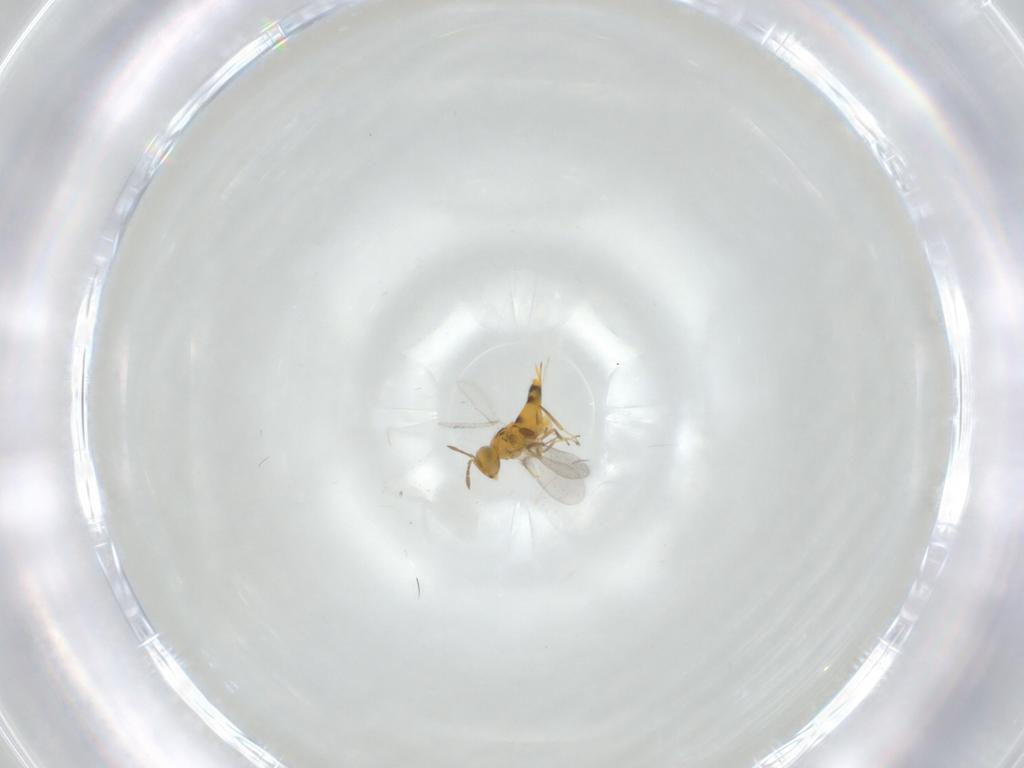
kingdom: Animalia
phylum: Arthropoda
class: Insecta
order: Hymenoptera
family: Aphelinidae
